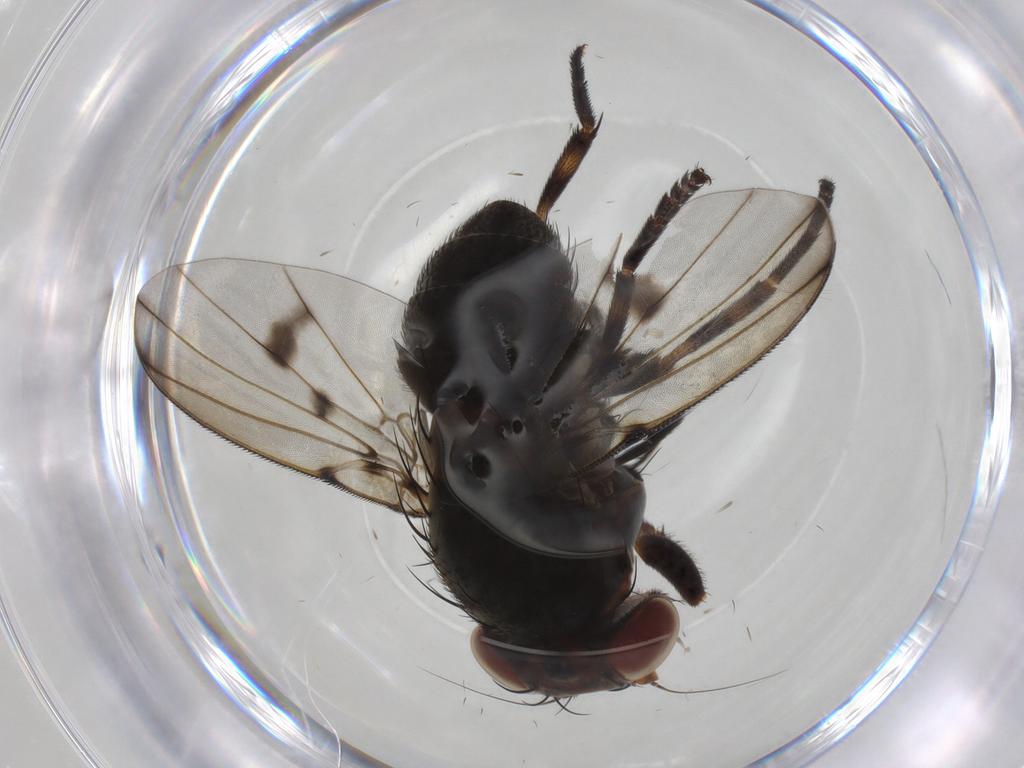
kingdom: Animalia
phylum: Arthropoda
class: Insecta
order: Diptera
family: Muscidae
